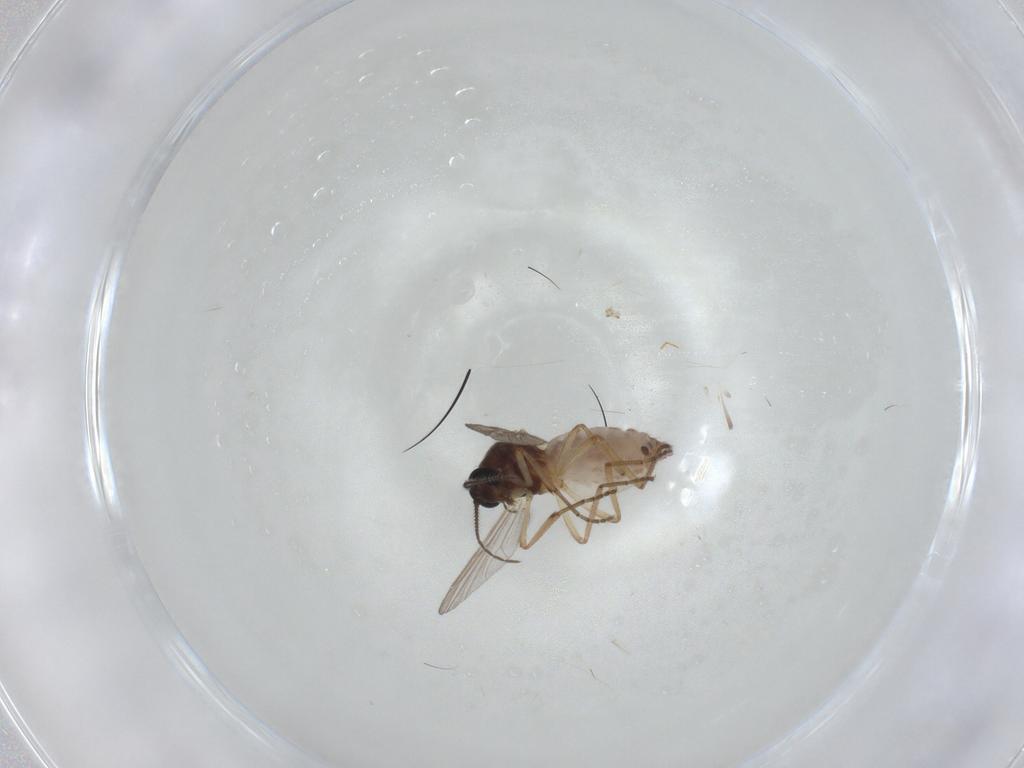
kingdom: Animalia
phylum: Arthropoda
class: Insecta
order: Diptera
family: Ceratopogonidae
